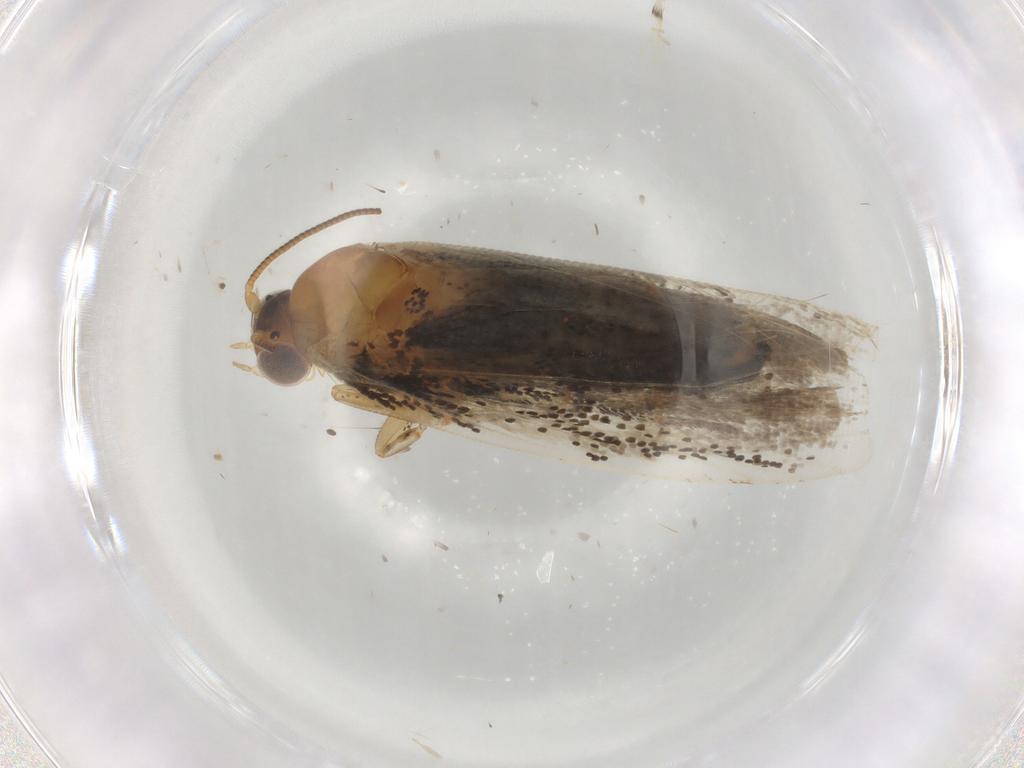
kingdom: Animalia
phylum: Arthropoda
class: Insecta
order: Lepidoptera
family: Tortricidae
